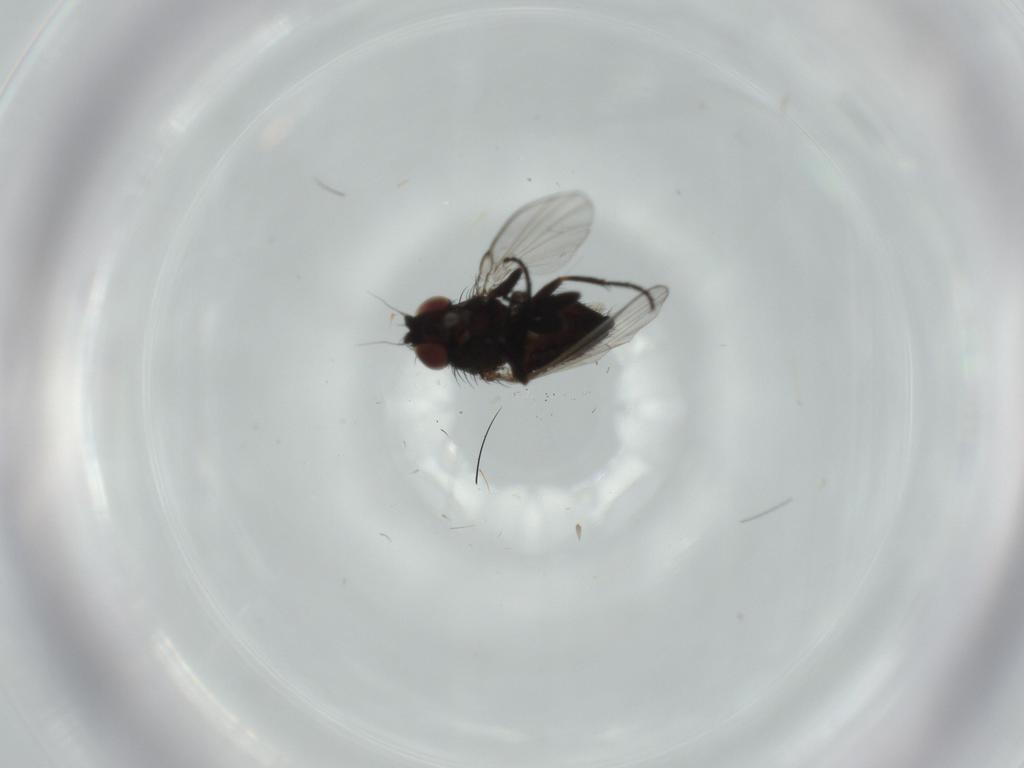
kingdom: Animalia
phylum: Arthropoda
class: Insecta
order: Diptera
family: Milichiidae
